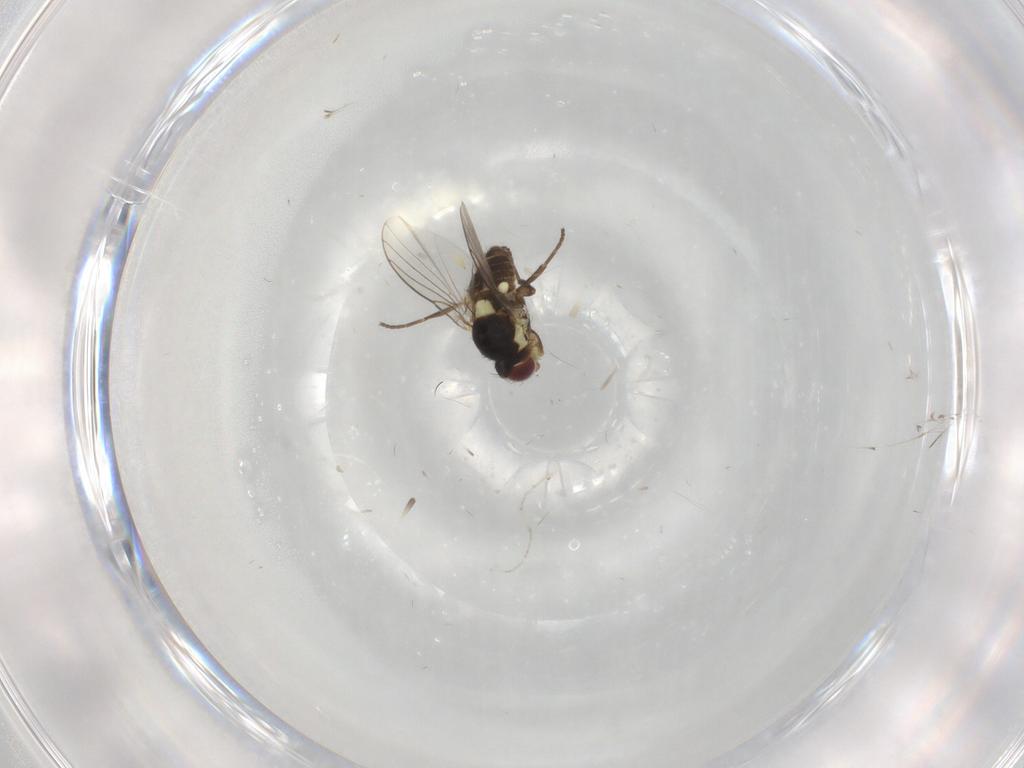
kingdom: Animalia
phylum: Arthropoda
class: Insecta
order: Diptera
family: Agromyzidae
